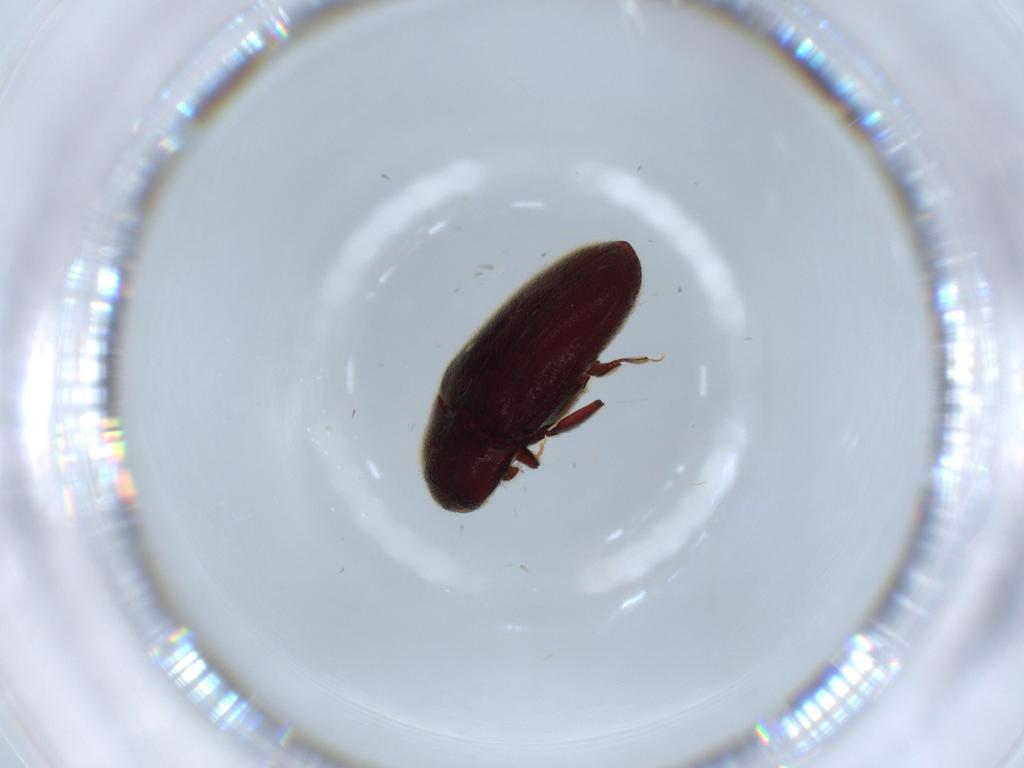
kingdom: Animalia
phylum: Arthropoda
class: Insecta
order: Coleoptera
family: Throscidae
